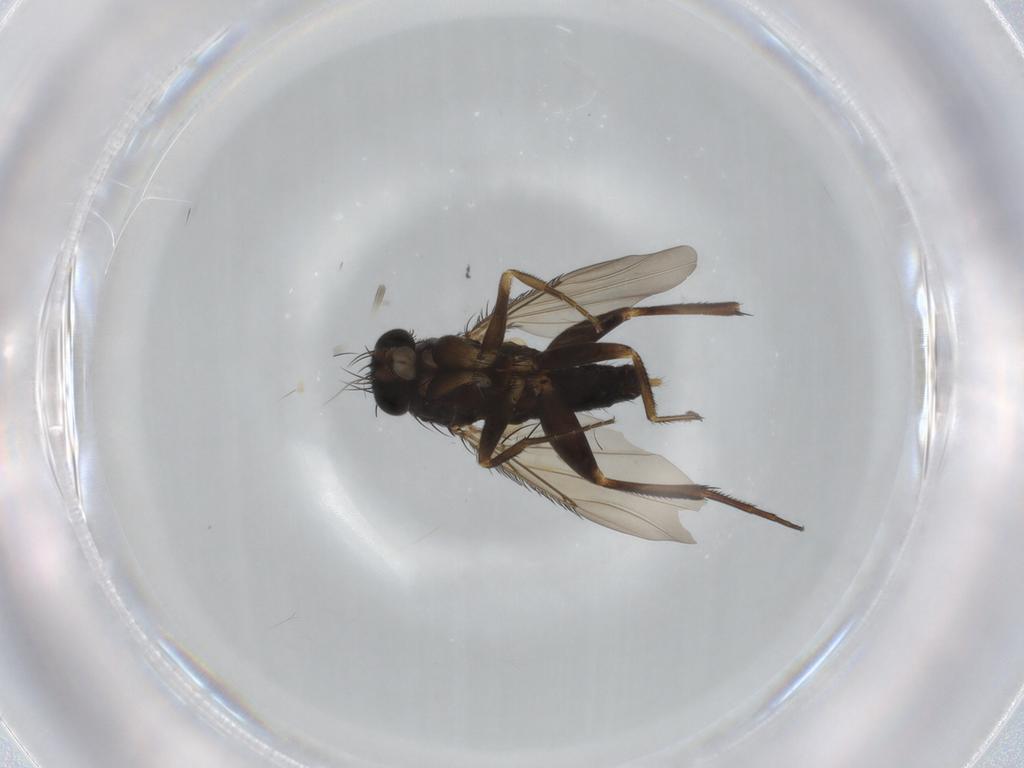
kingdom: Animalia
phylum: Arthropoda
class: Insecta
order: Diptera
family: Phoridae
